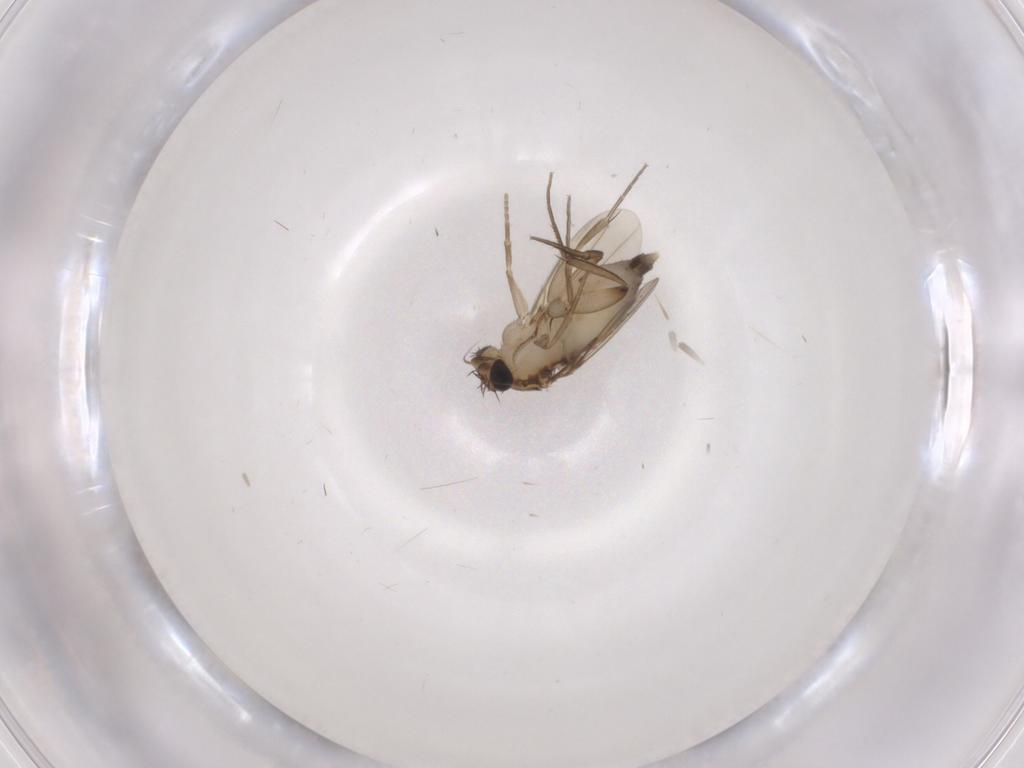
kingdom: Animalia
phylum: Arthropoda
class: Insecta
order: Diptera
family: Phoridae
